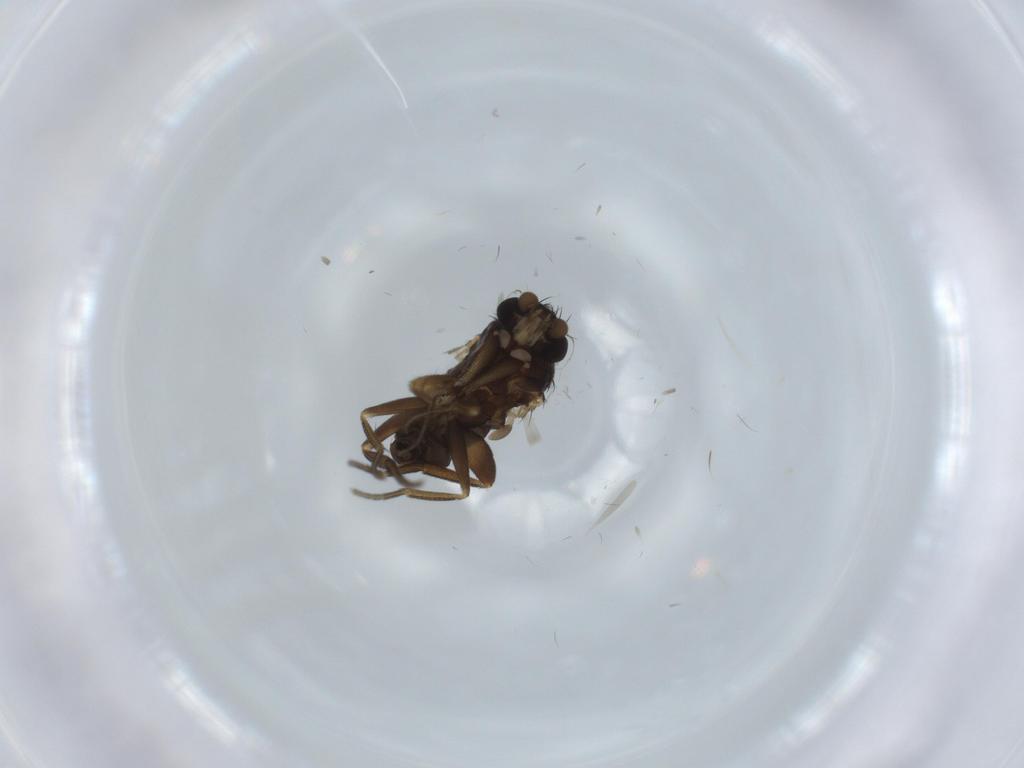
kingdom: Animalia
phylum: Arthropoda
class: Insecta
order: Diptera
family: Phoridae
